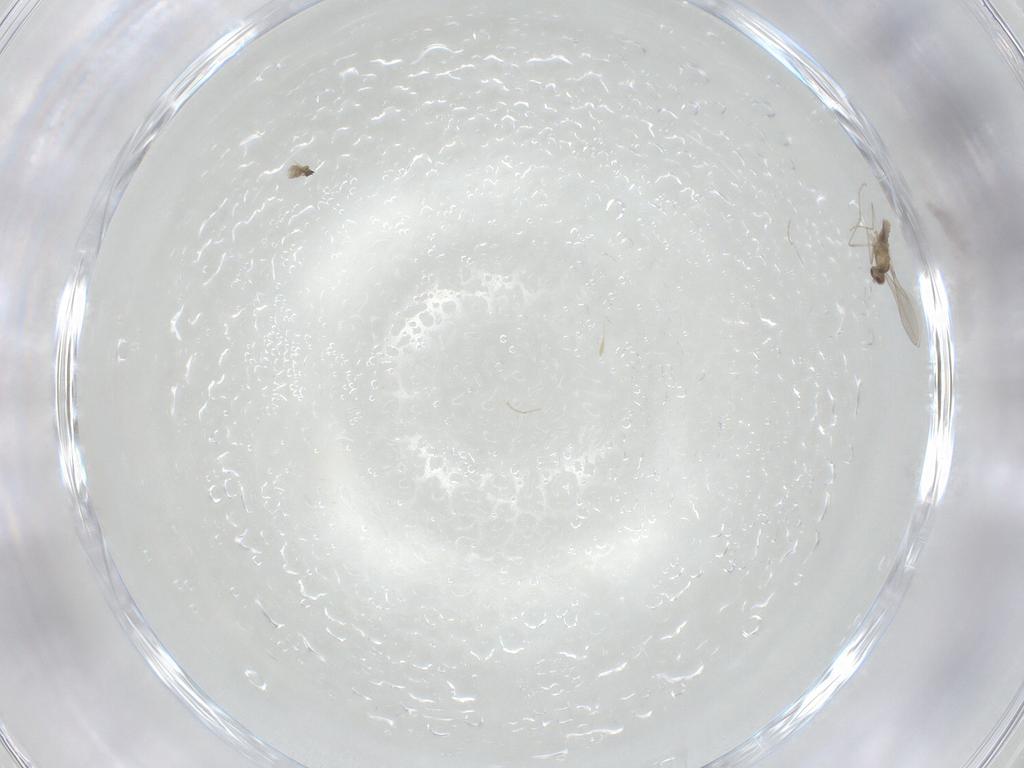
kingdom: Animalia
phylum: Arthropoda
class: Insecta
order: Diptera
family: Cecidomyiidae
